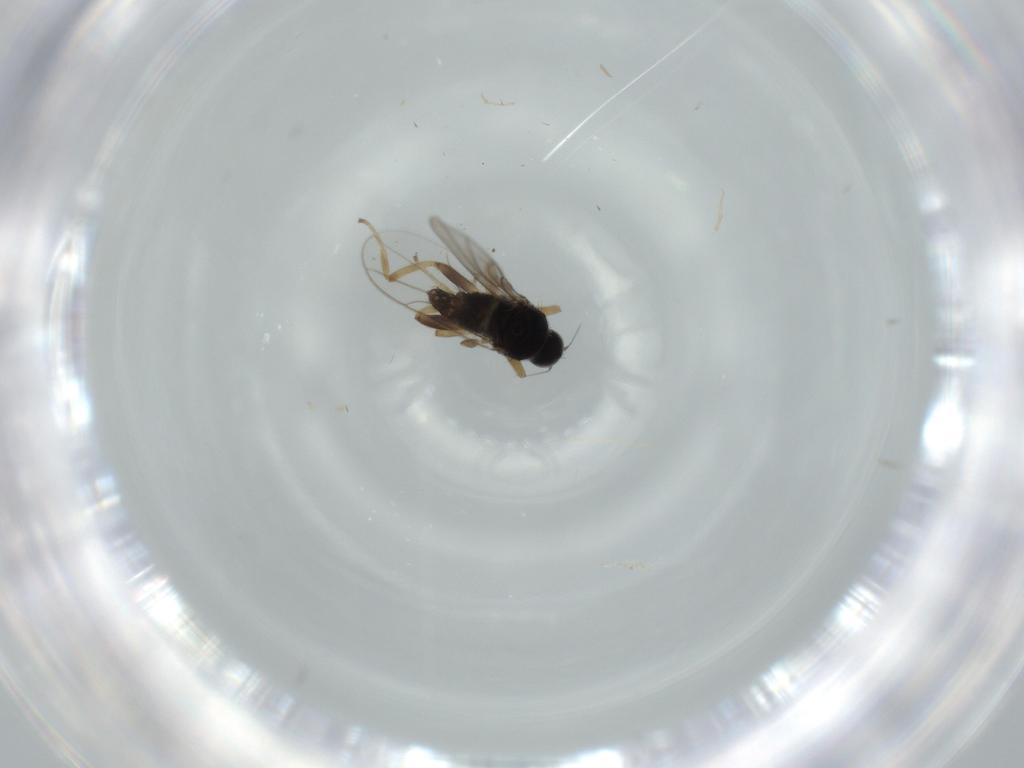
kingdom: Animalia
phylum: Arthropoda
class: Insecta
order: Diptera
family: Hybotidae
